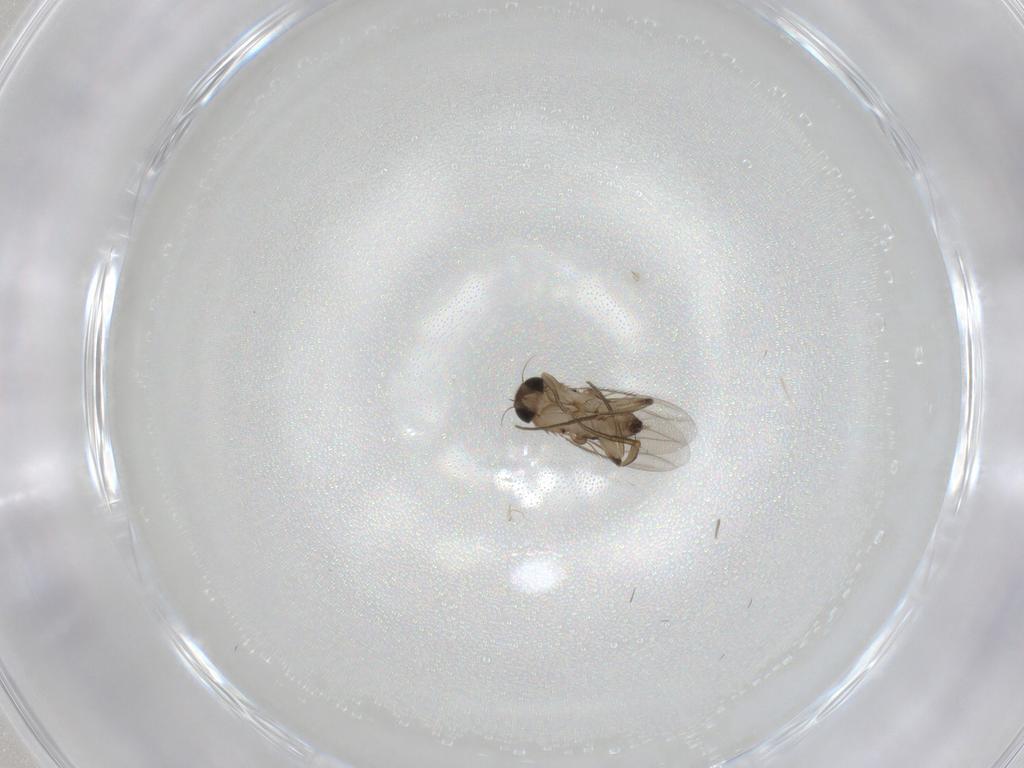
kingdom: Animalia
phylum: Arthropoda
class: Insecta
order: Diptera
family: Phoridae
